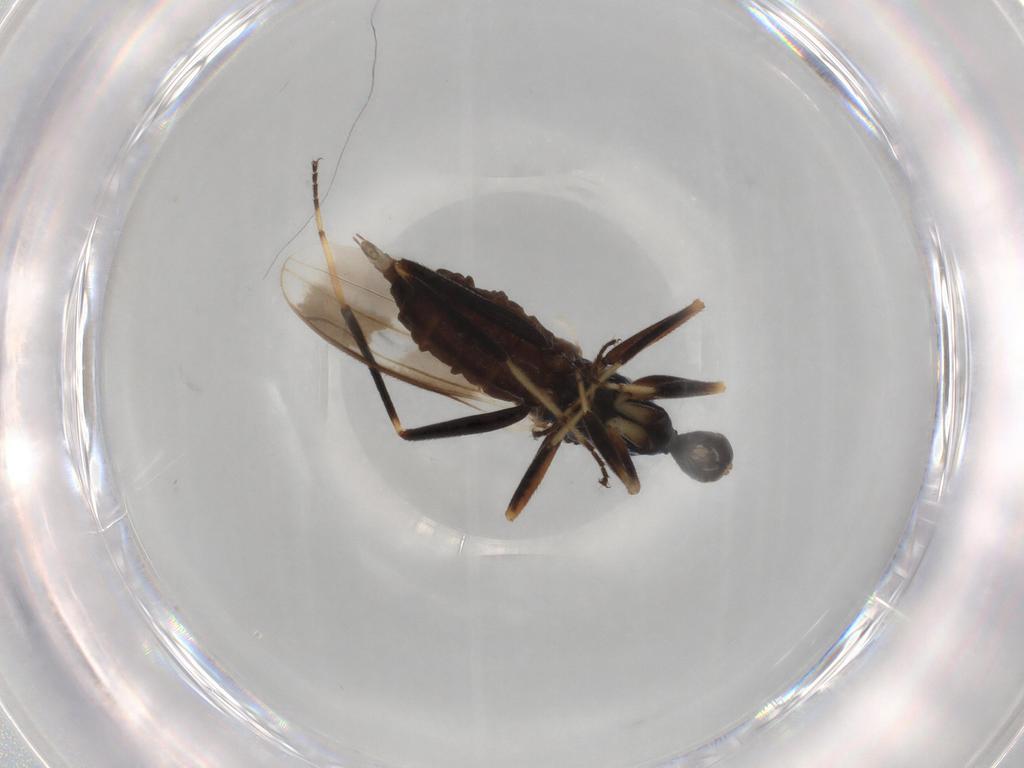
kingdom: Animalia
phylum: Arthropoda
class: Insecta
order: Diptera
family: Hybotidae
